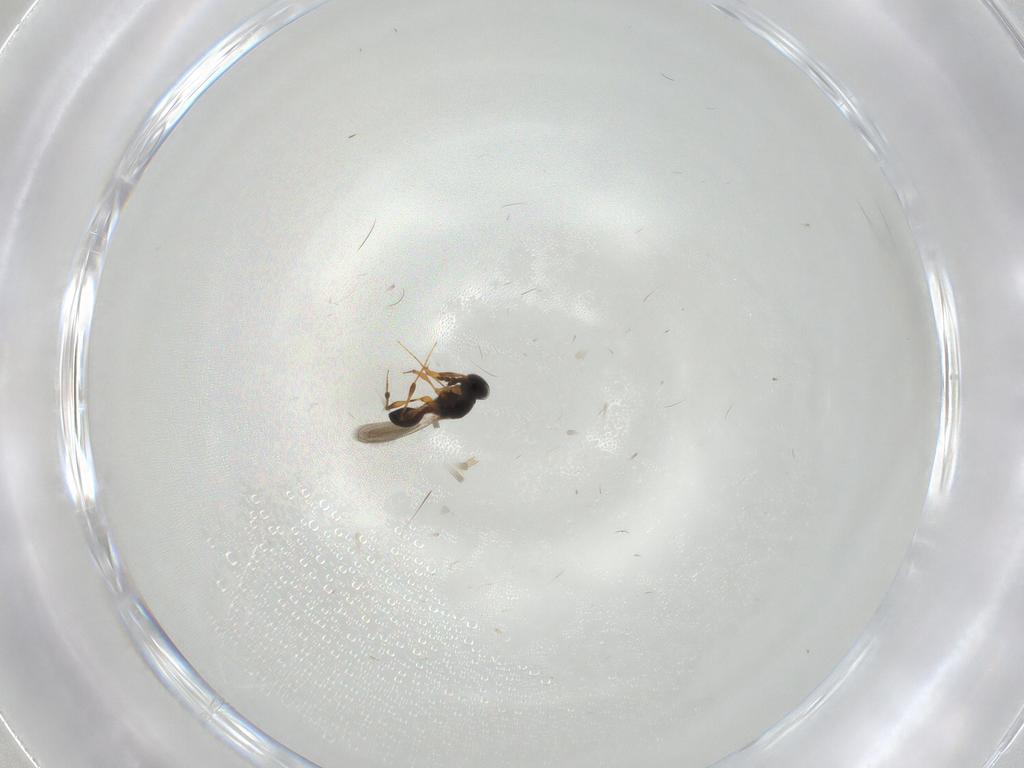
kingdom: Animalia
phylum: Arthropoda
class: Insecta
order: Hymenoptera
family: Platygastridae
